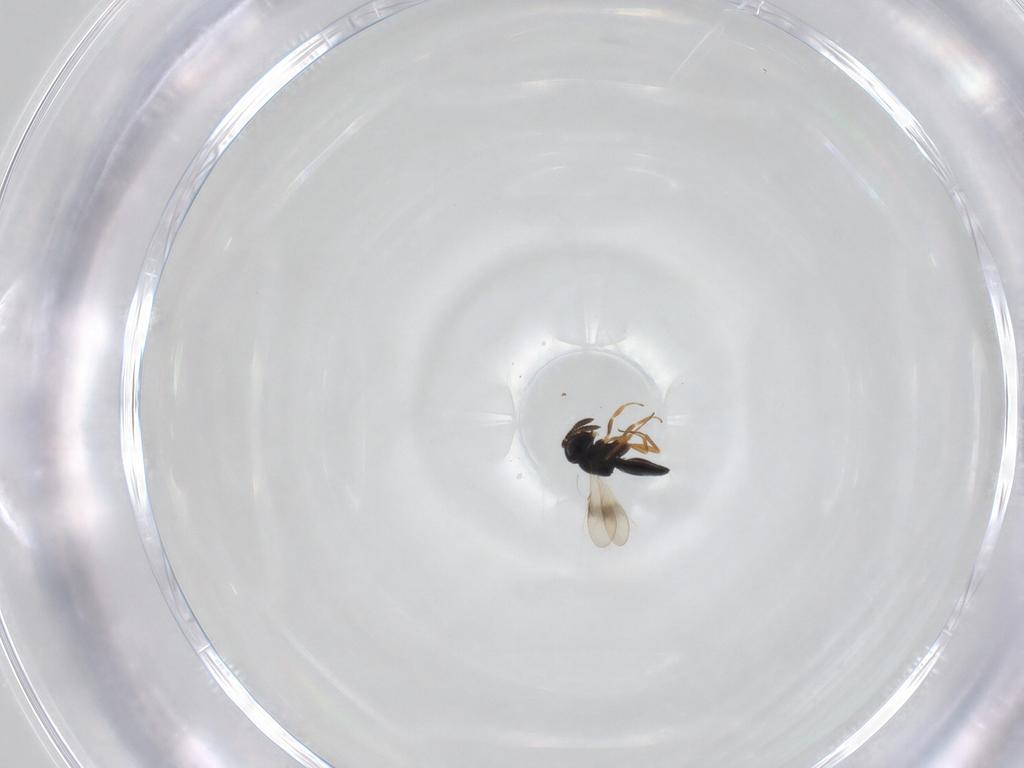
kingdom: Animalia
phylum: Arthropoda
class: Insecta
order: Hymenoptera
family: Scelionidae
